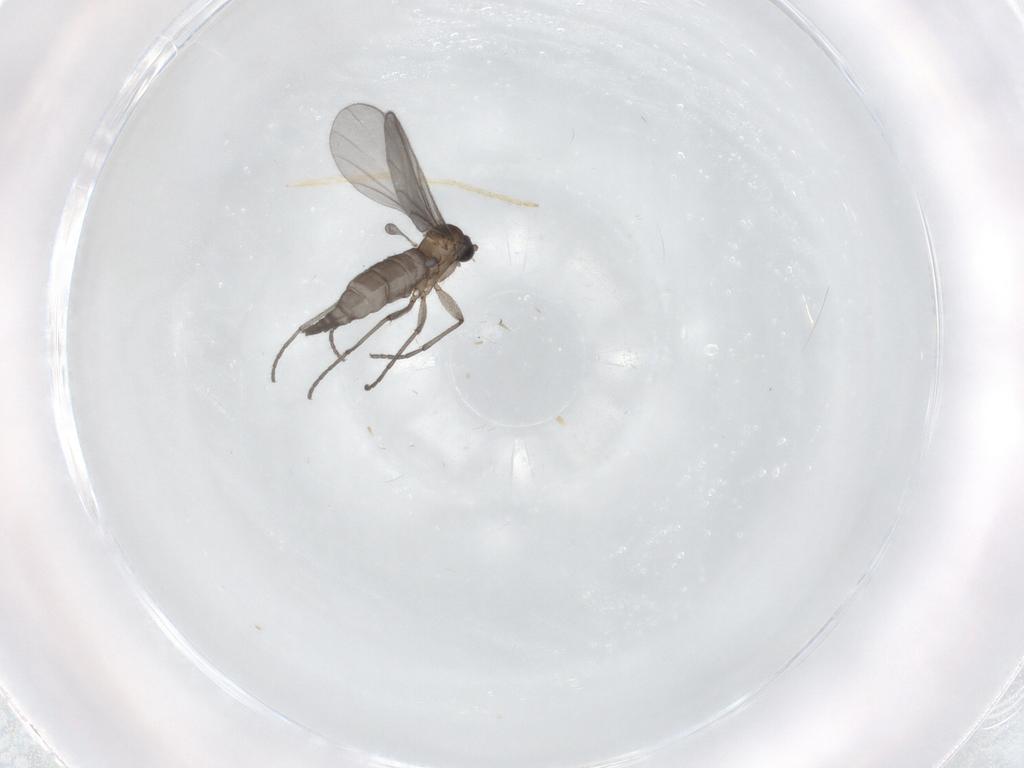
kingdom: Animalia
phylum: Arthropoda
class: Insecta
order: Diptera
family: Sciaridae
